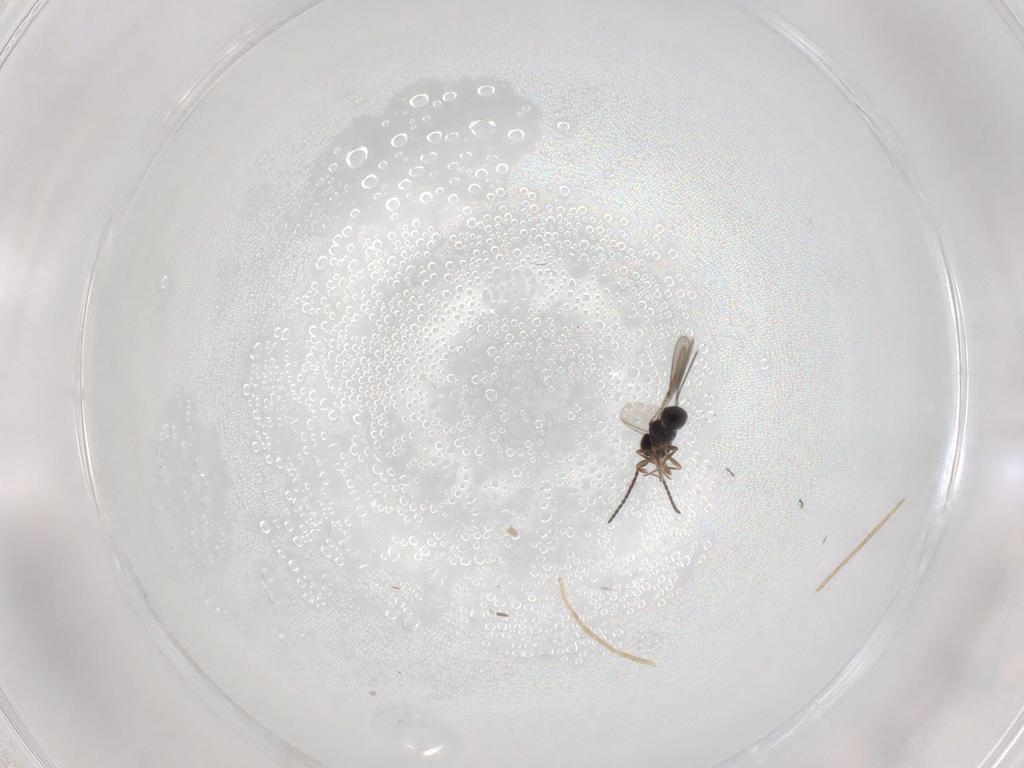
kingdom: Animalia
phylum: Arthropoda
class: Insecta
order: Hymenoptera
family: Scelionidae
